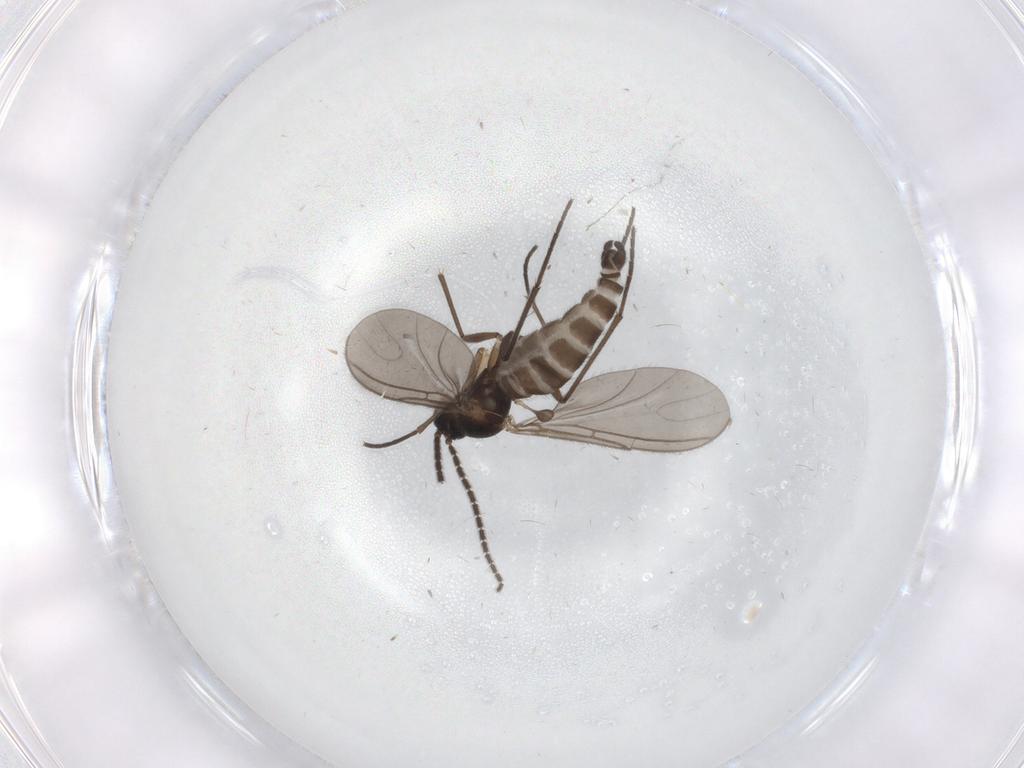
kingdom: Animalia
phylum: Arthropoda
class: Insecta
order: Diptera
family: Sciaridae
